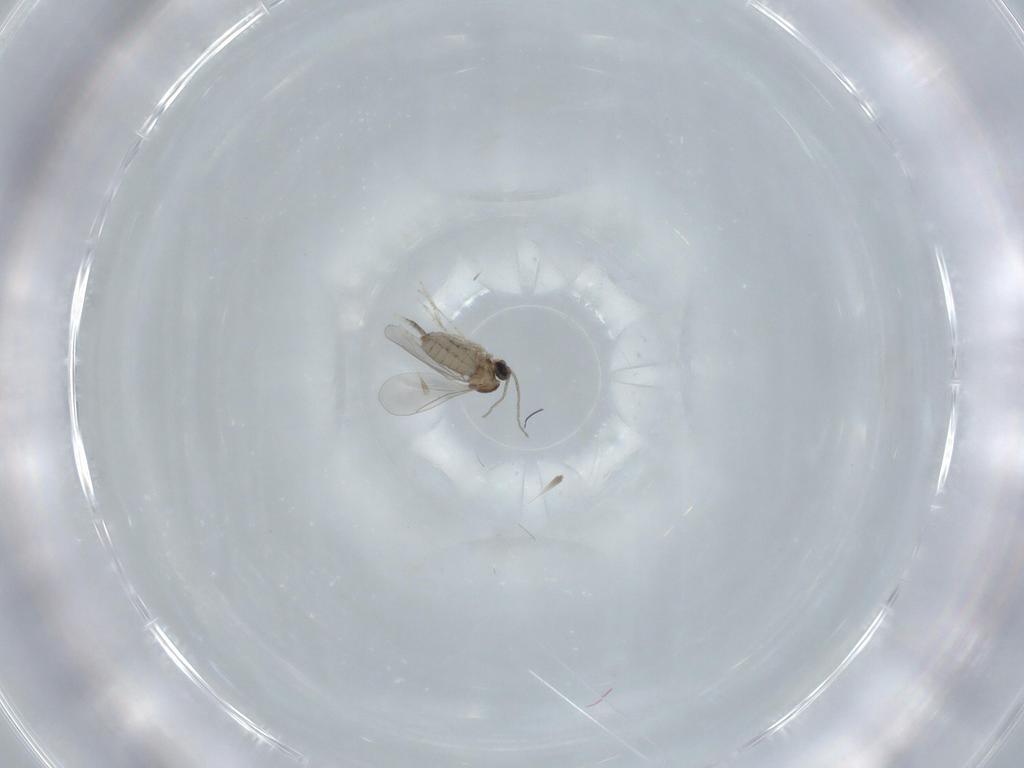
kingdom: Animalia
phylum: Arthropoda
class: Insecta
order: Diptera
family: Cecidomyiidae
